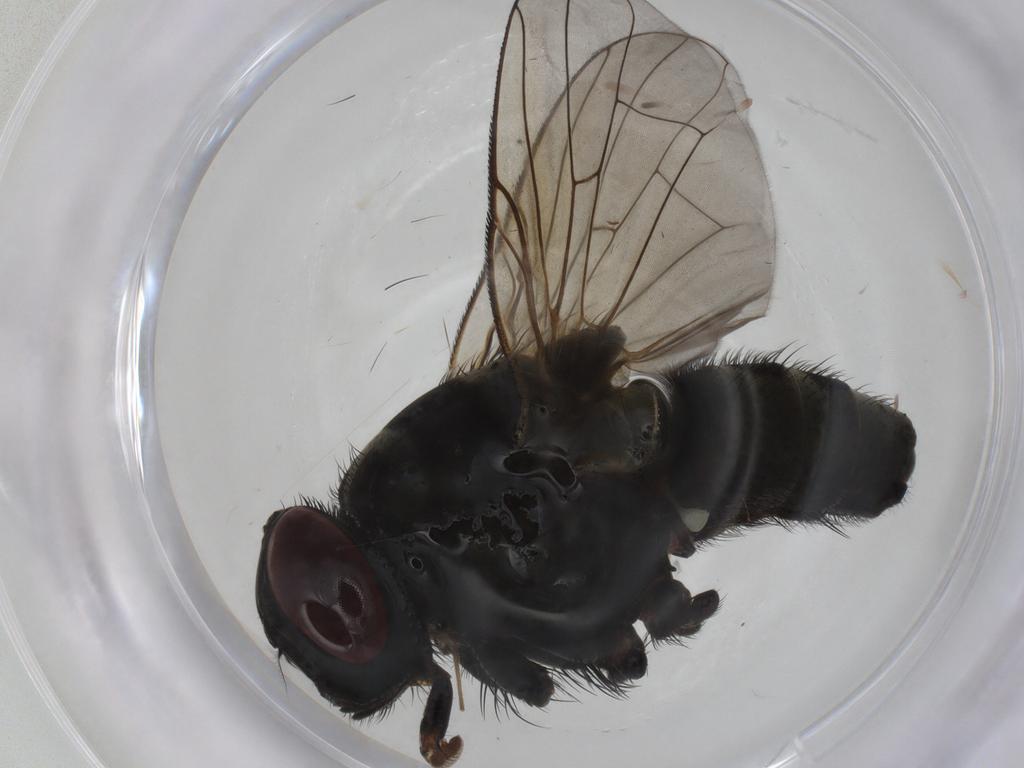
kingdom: Animalia
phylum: Arthropoda
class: Insecta
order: Diptera
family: Muscidae
